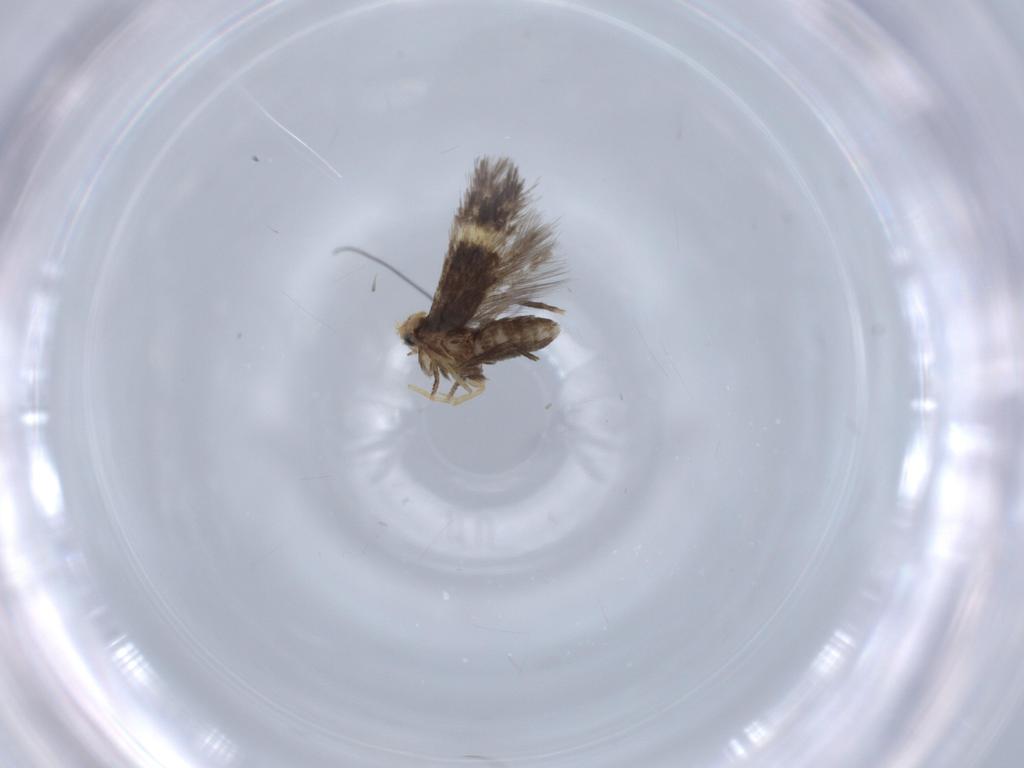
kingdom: Animalia
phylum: Arthropoda
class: Insecta
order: Lepidoptera
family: Nepticulidae
